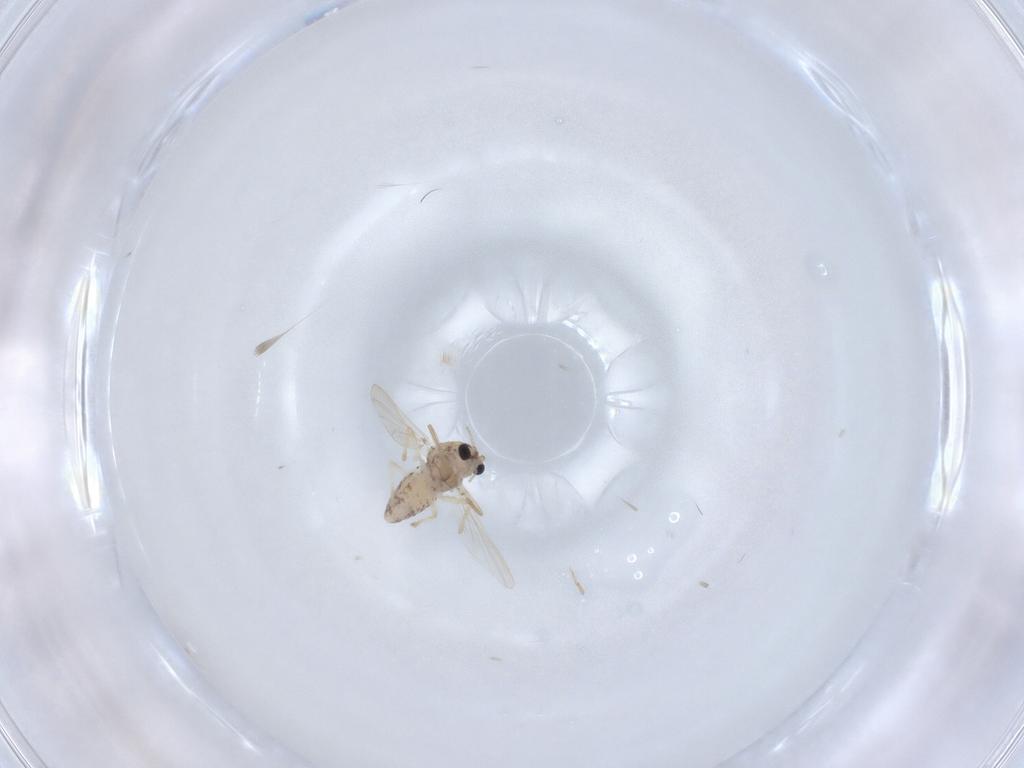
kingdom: Animalia
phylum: Arthropoda
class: Insecta
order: Diptera
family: Chironomidae
